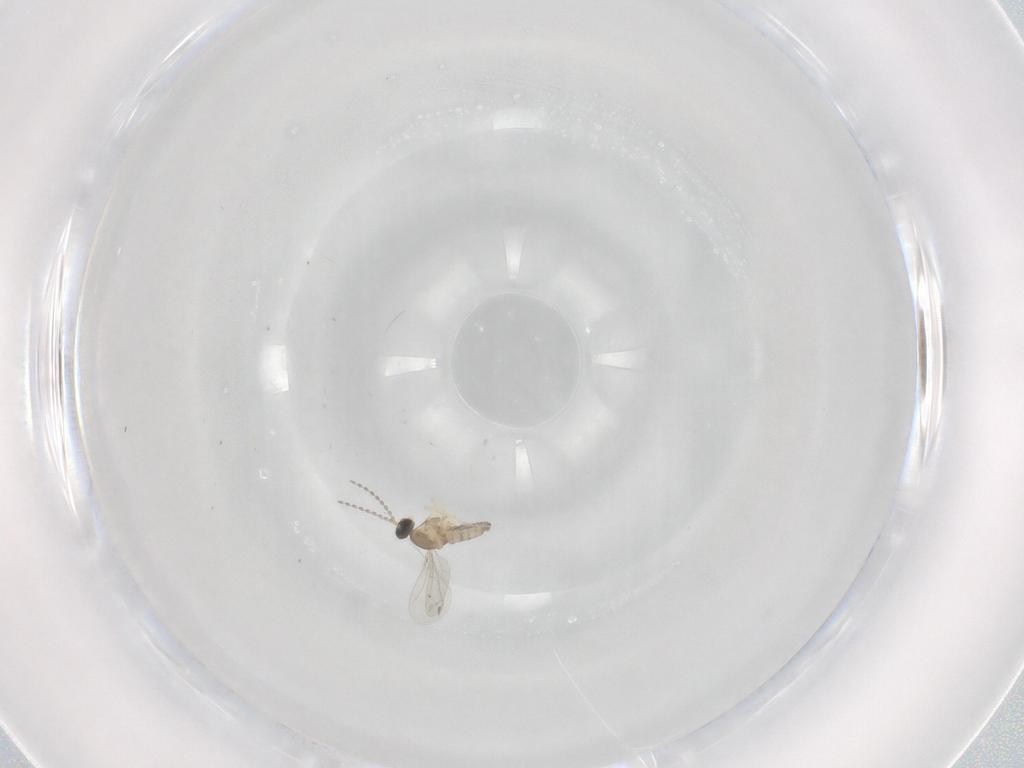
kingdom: Animalia
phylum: Arthropoda
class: Insecta
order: Diptera
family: Cecidomyiidae
